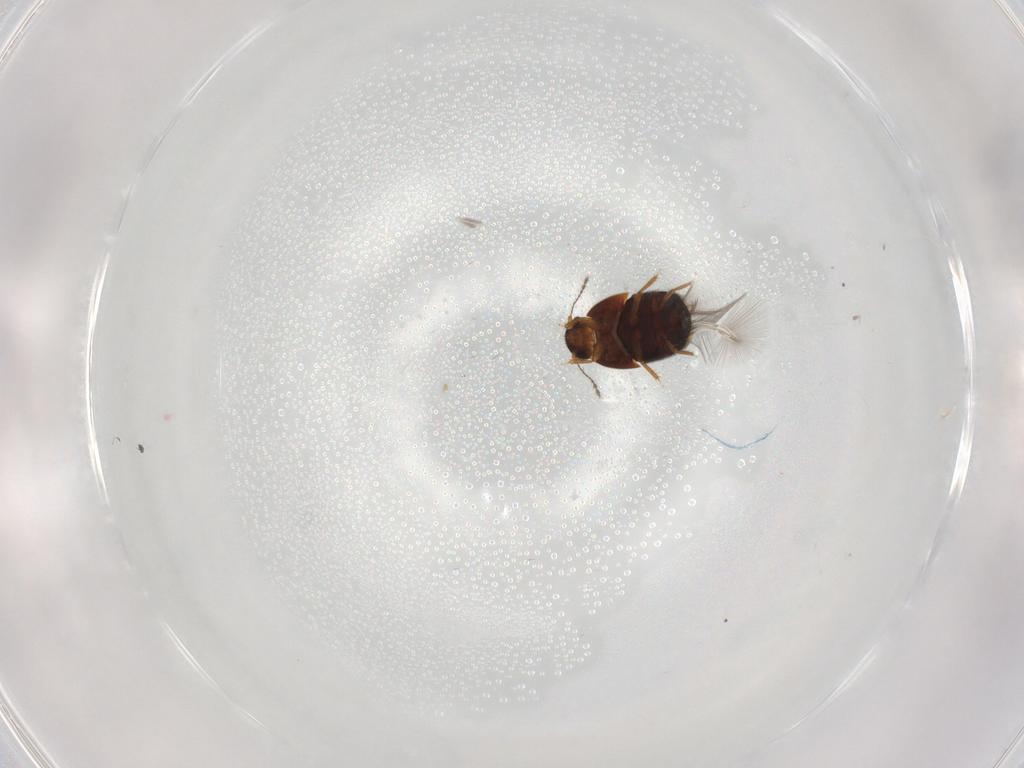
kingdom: Animalia
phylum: Arthropoda
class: Insecta
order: Coleoptera
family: Ptiliidae
